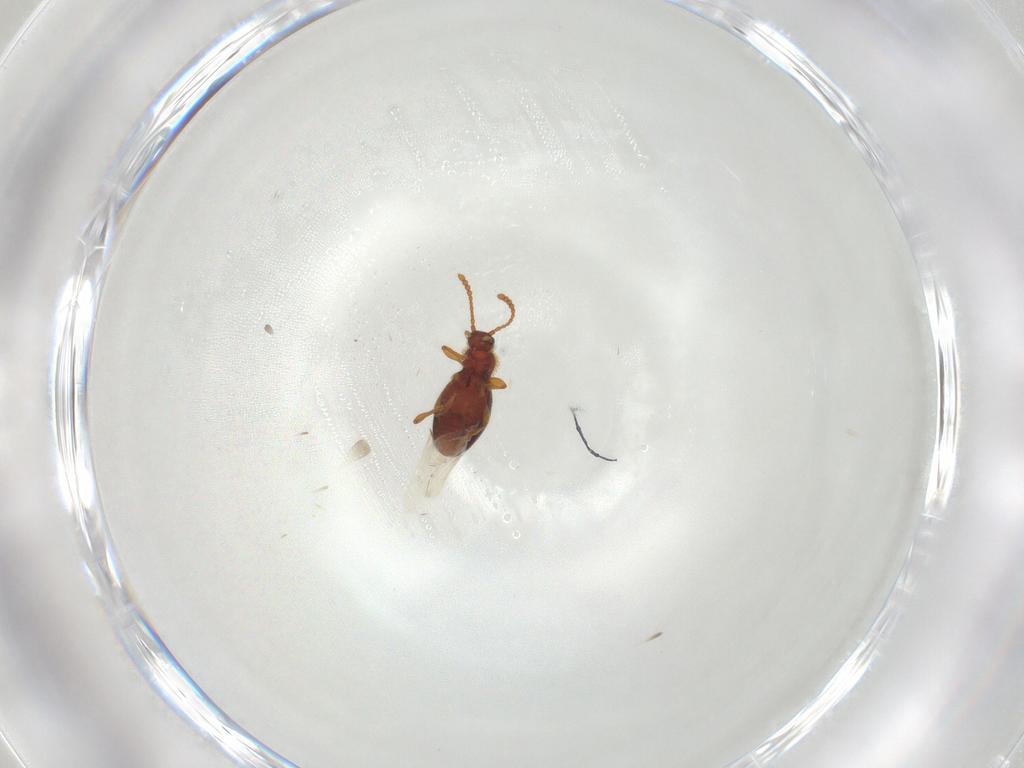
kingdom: Animalia
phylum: Arthropoda
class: Insecta
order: Coleoptera
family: Staphylinidae
